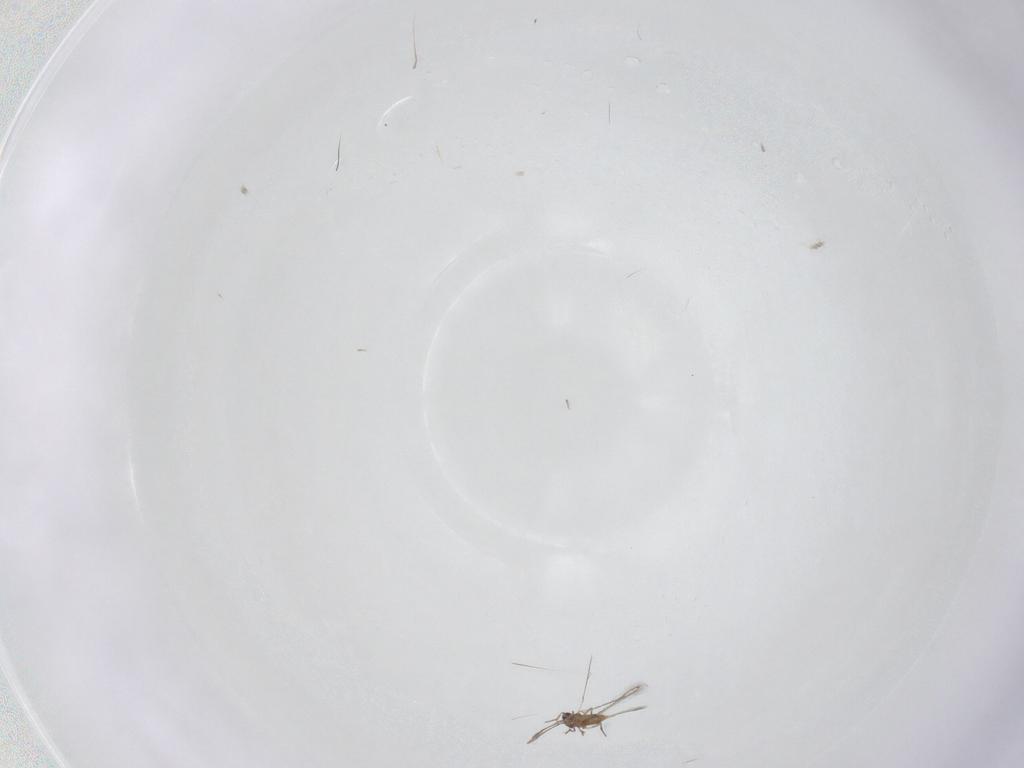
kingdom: Animalia
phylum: Arthropoda
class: Insecta
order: Hymenoptera
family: Mymaridae
